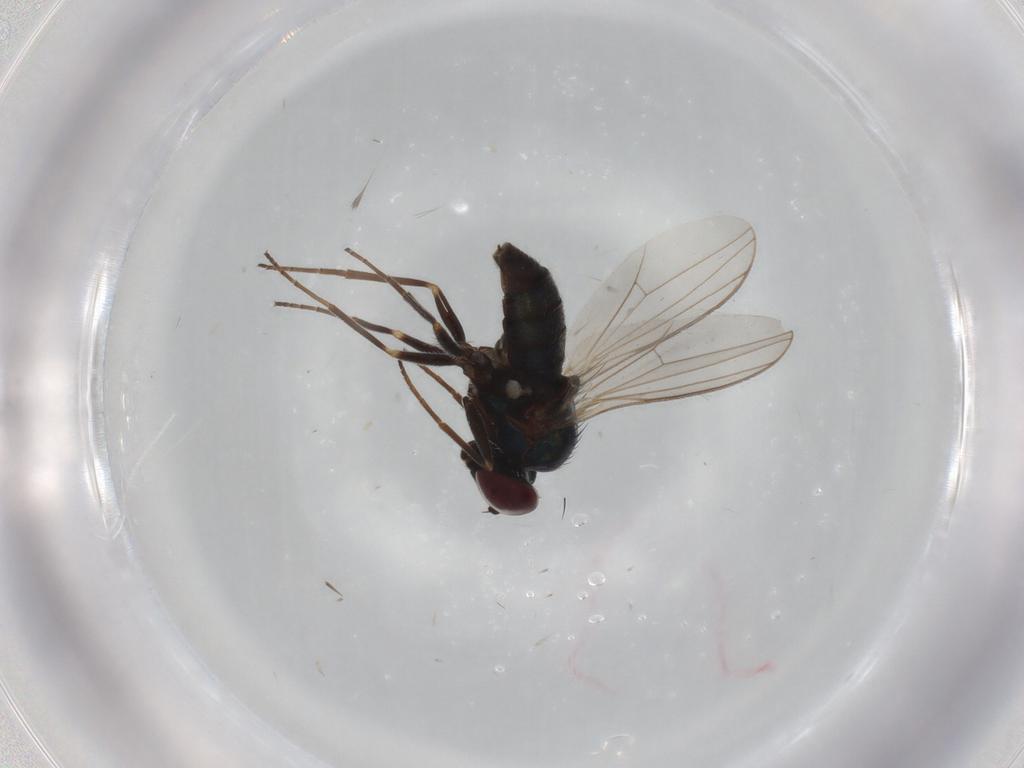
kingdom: Animalia
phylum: Arthropoda
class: Insecta
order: Diptera
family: Dolichopodidae
